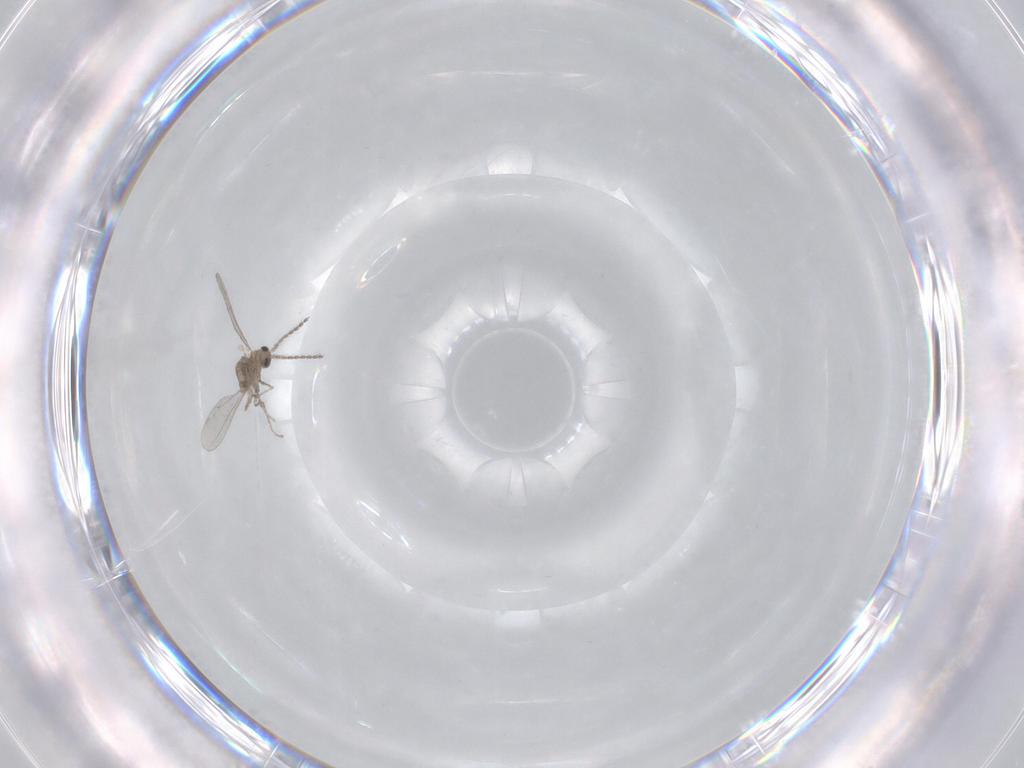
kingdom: Animalia
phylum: Arthropoda
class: Insecta
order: Diptera
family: Cecidomyiidae
